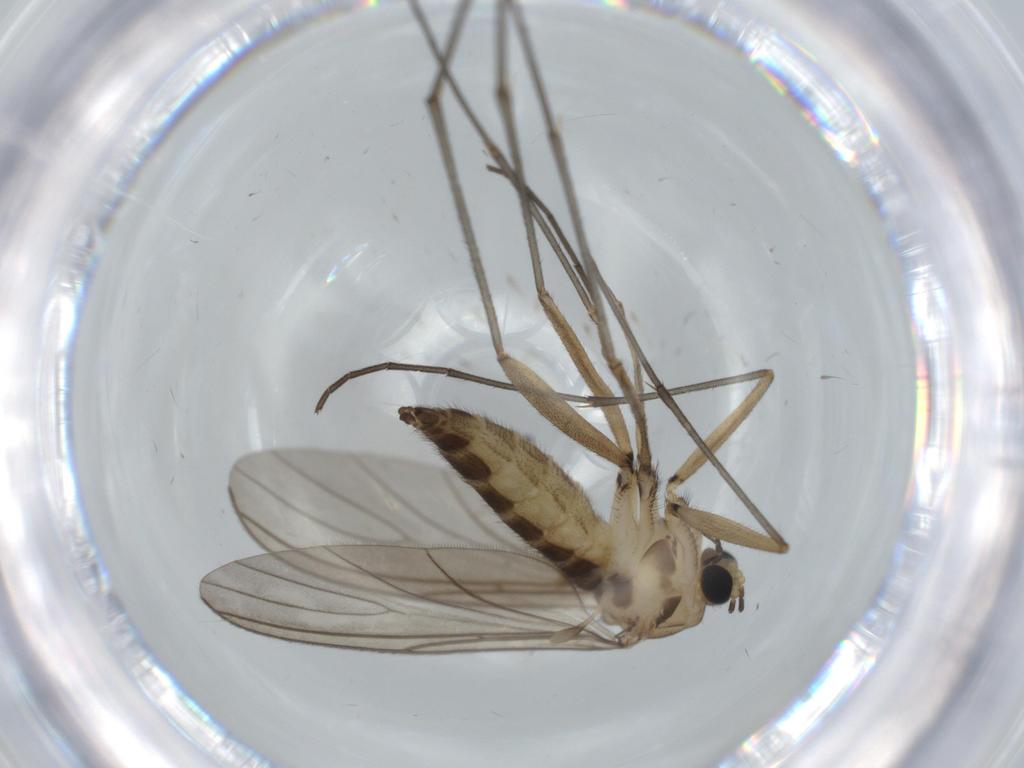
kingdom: Animalia
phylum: Arthropoda
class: Insecta
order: Diptera
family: Sciaridae
